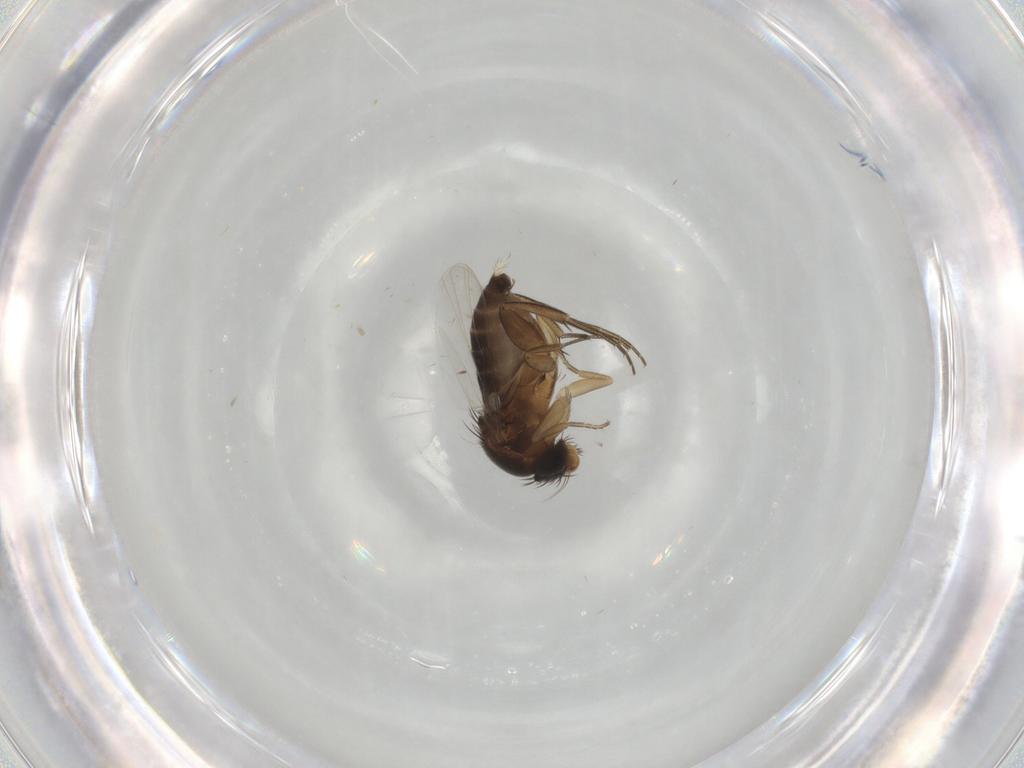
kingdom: Animalia
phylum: Arthropoda
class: Insecta
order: Diptera
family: Phoridae
